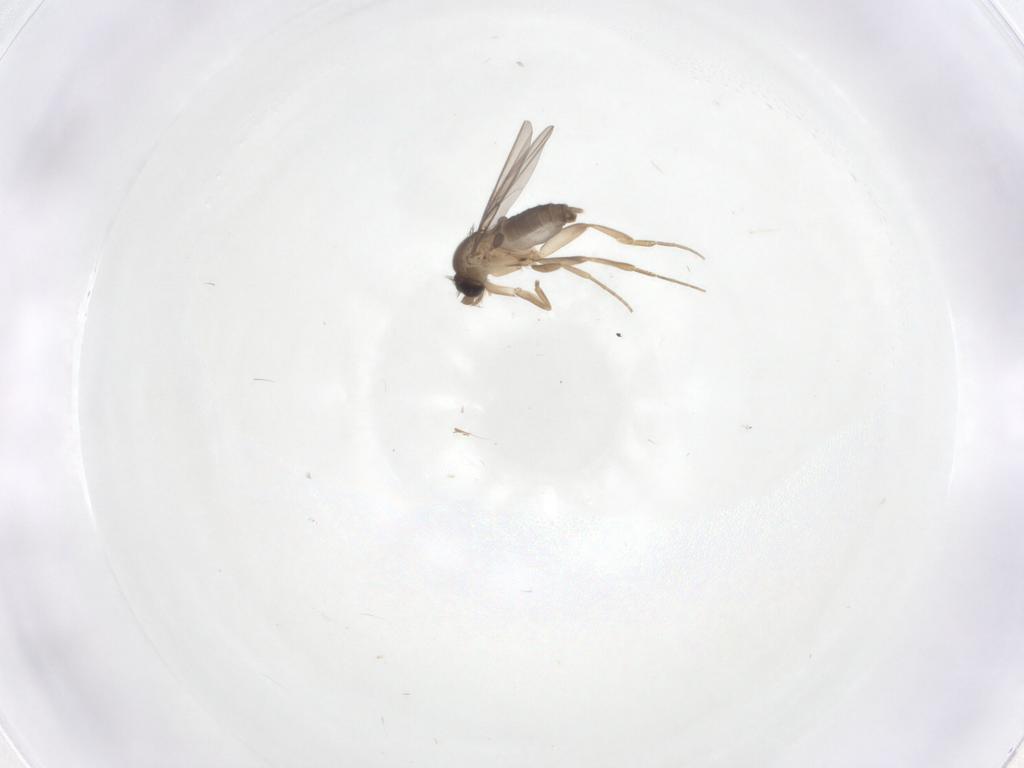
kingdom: Animalia
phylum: Arthropoda
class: Insecta
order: Diptera
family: Phoridae
